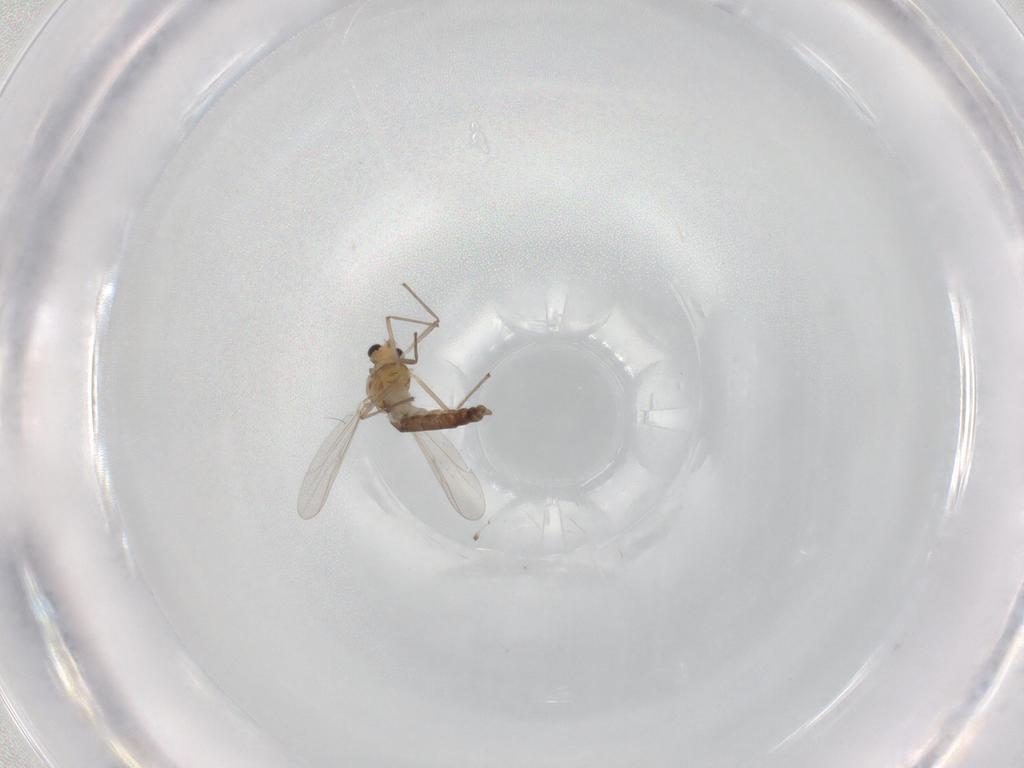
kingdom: Animalia
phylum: Arthropoda
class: Insecta
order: Diptera
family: Chironomidae
